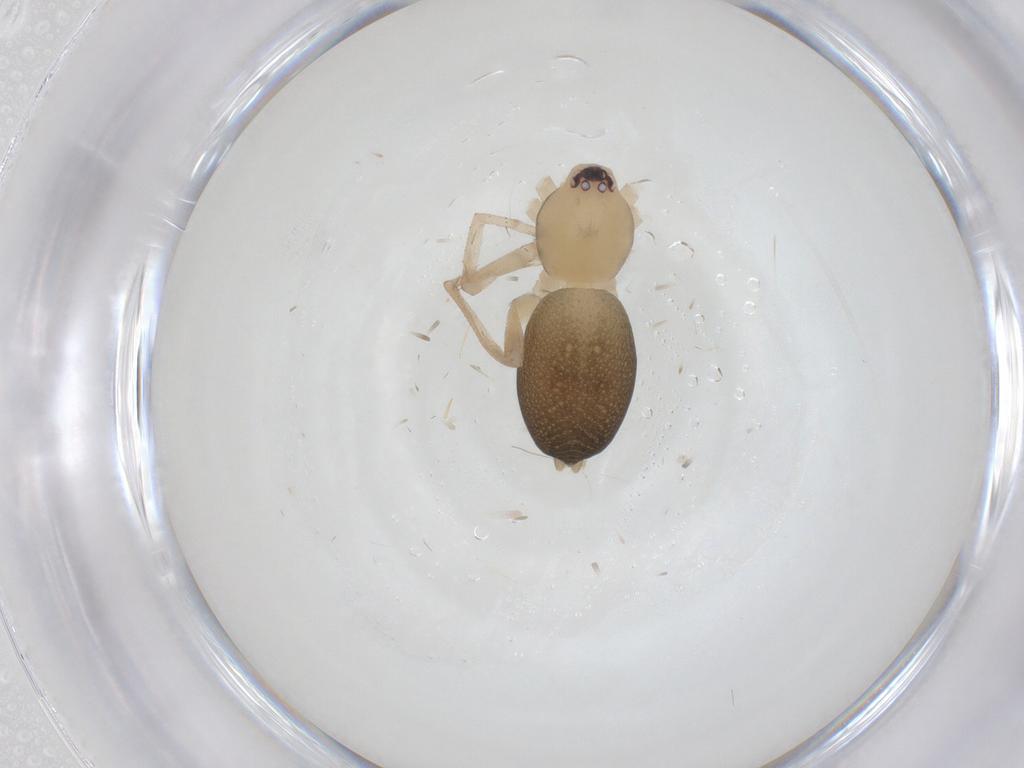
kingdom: Animalia
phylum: Arthropoda
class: Arachnida
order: Araneae
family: Corinnidae
